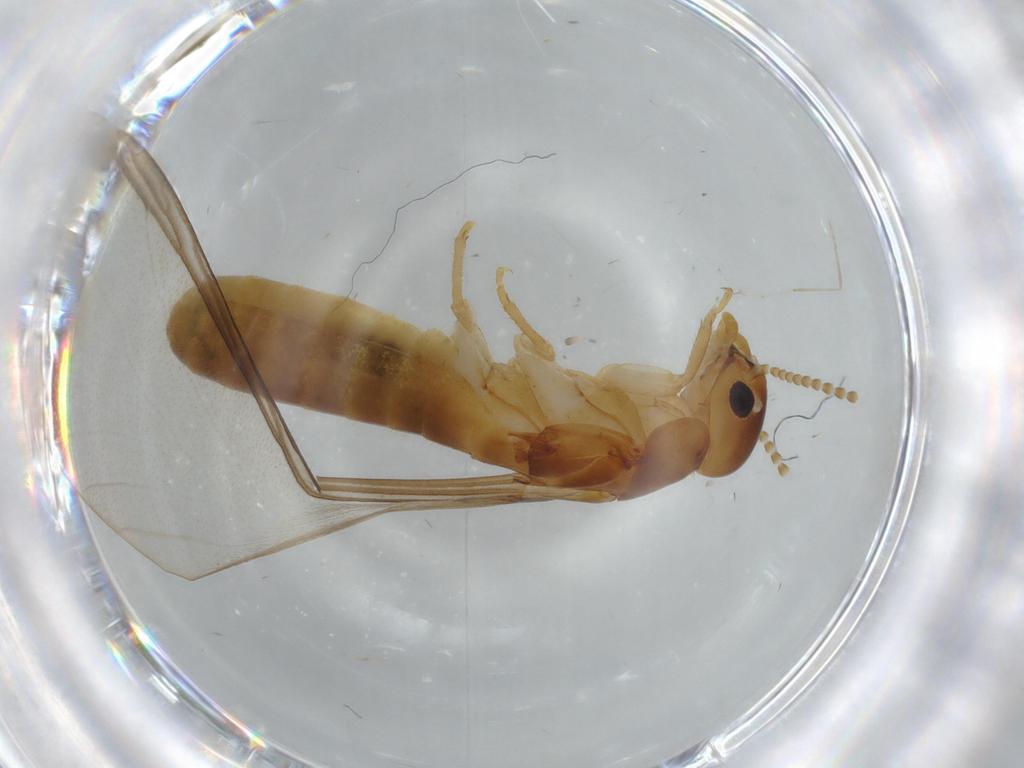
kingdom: Animalia
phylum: Arthropoda
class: Insecta
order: Blattodea
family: Kalotermitidae
